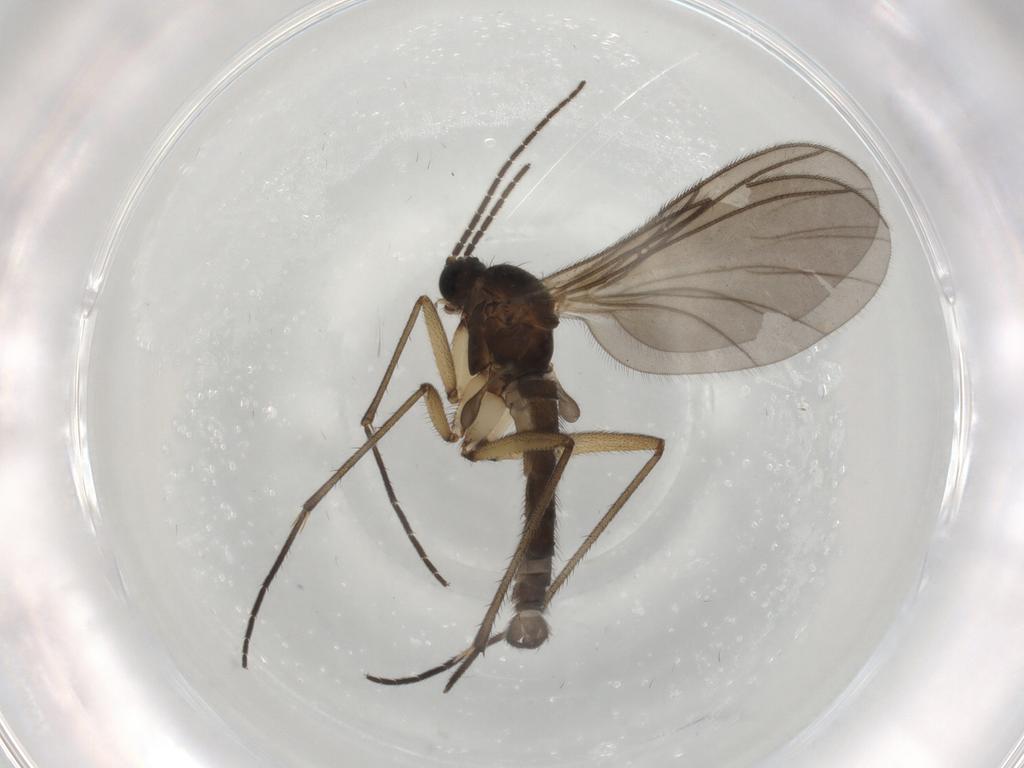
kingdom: Animalia
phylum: Arthropoda
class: Insecta
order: Diptera
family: Sciaridae
